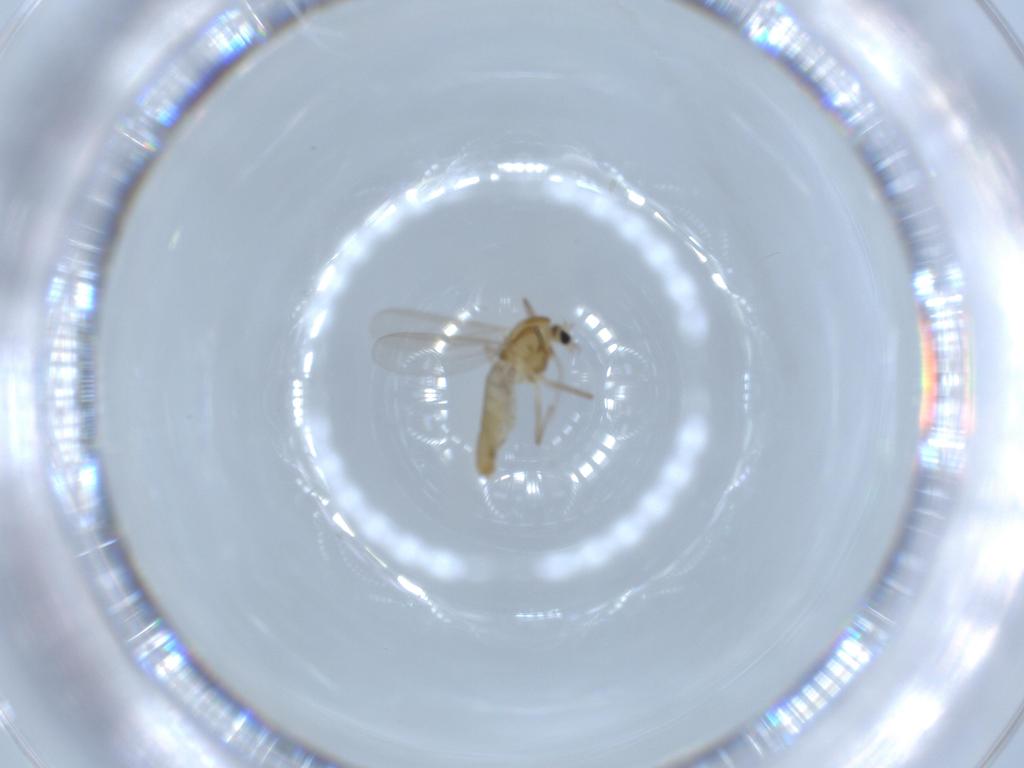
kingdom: Animalia
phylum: Arthropoda
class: Insecta
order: Diptera
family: Chironomidae
